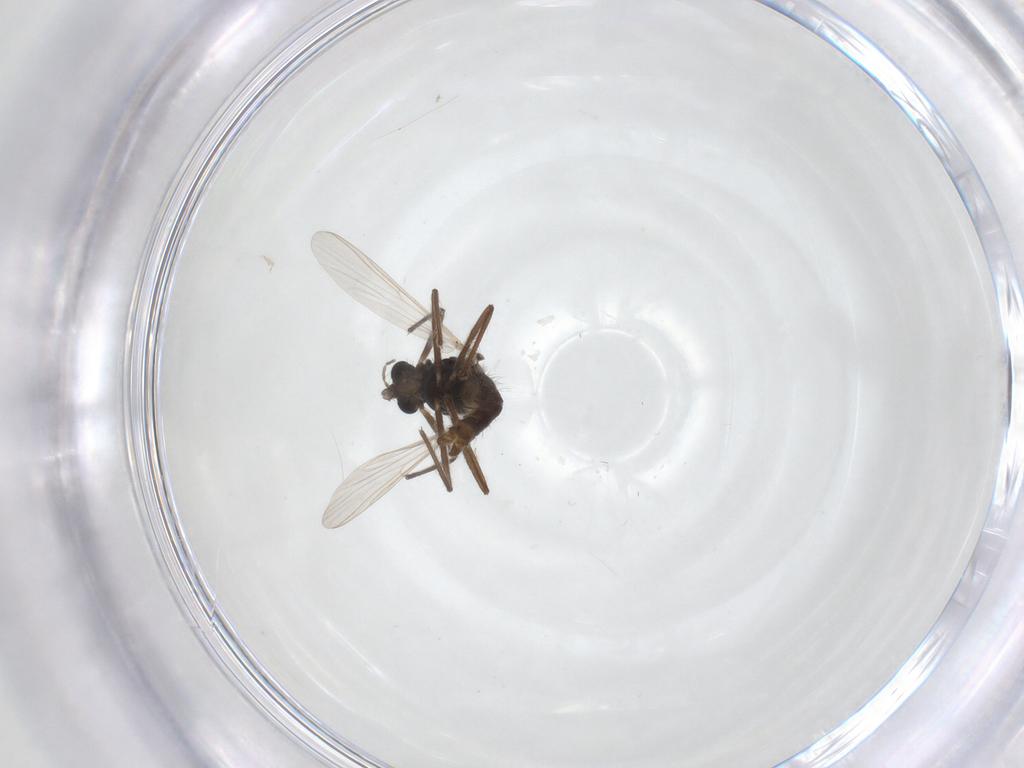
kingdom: Animalia
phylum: Arthropoda
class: Insecta
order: Diptera
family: Chironomidae
